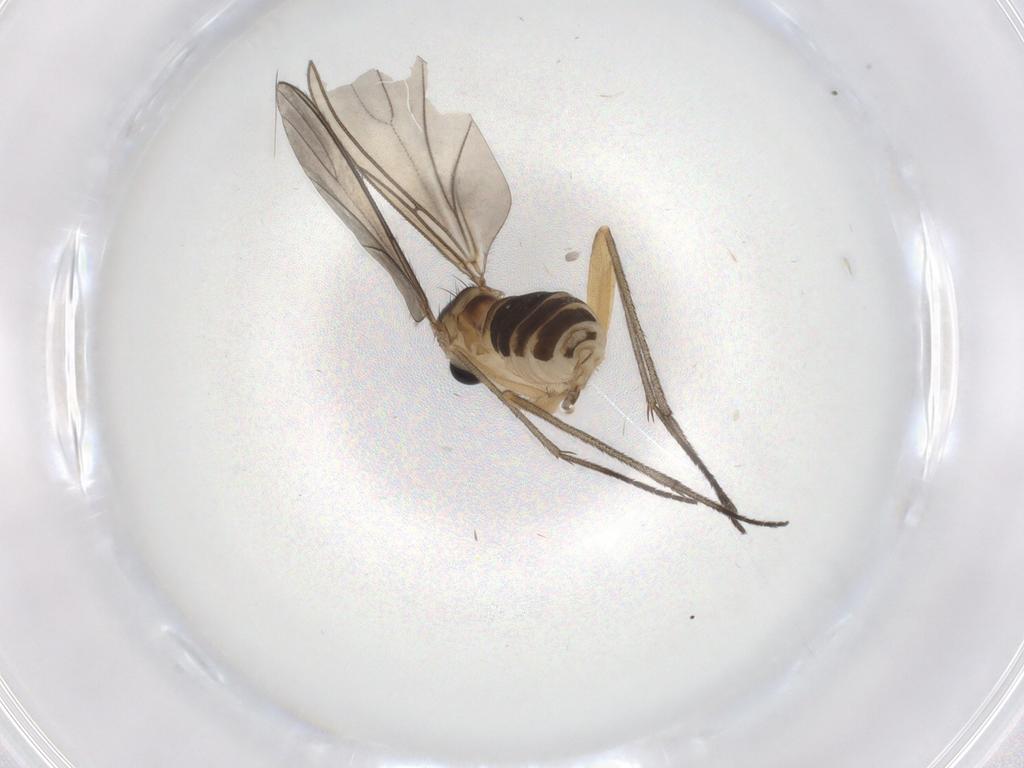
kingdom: Animalia
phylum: Arthropoda
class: Insecta
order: Diptera
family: Sciaridae
